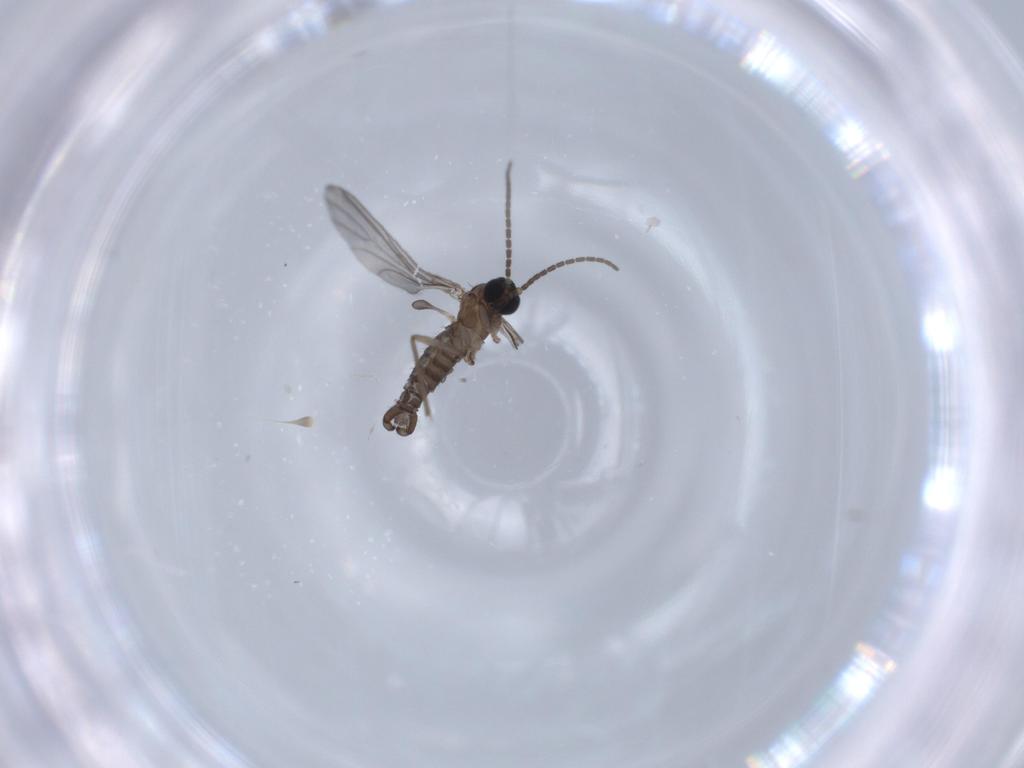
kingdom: Animalia
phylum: Arthropoda
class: Insecta
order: Diptera
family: Sciaridae
